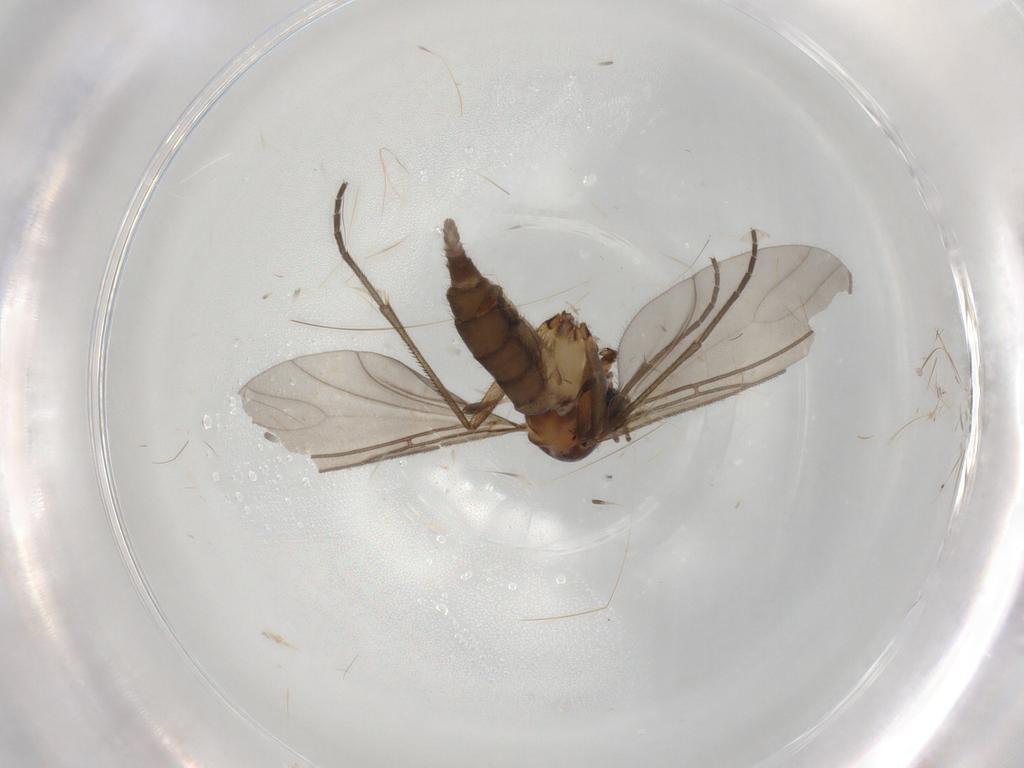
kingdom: Animalia
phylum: Arthropoda
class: Insecta
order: Diptera
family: Sciaridae
